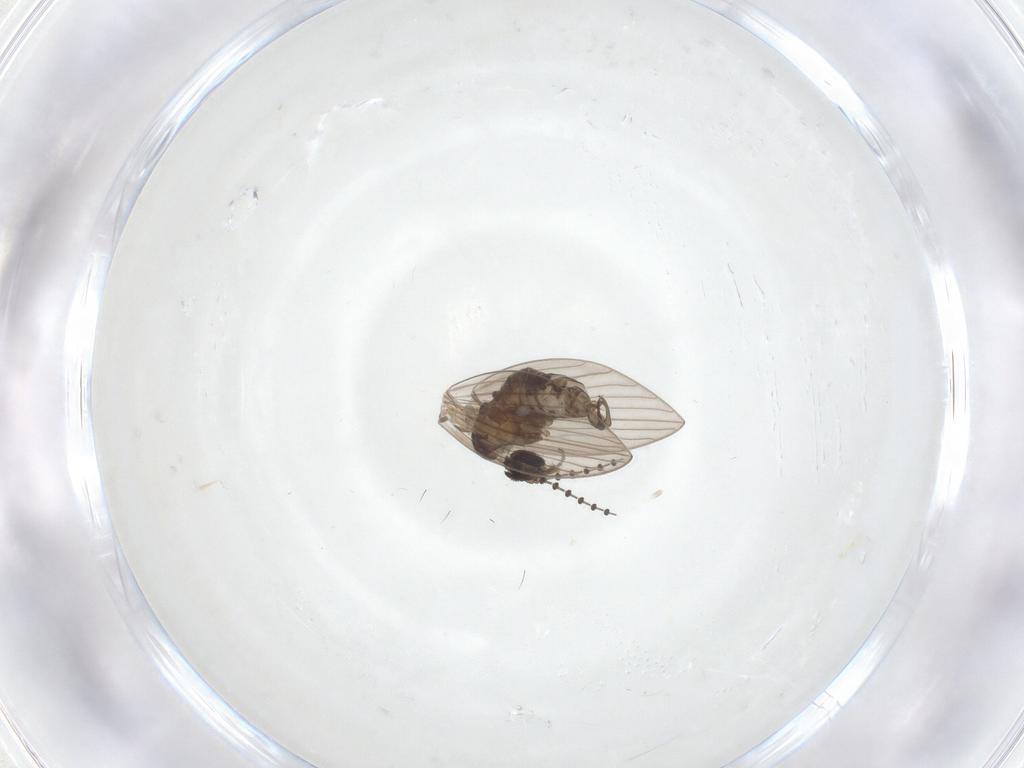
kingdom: Animalia
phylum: Arthropoda
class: Insecta
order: Diptera
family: Psychodidae
